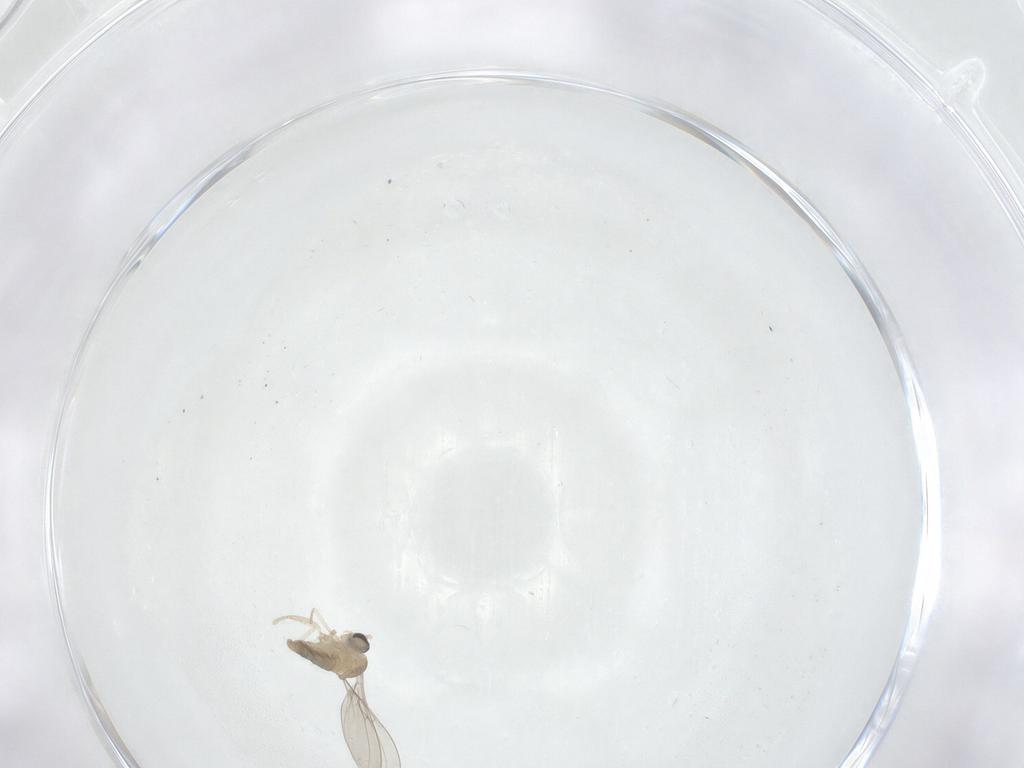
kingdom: Animalia
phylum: Arthropoda
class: Insecta
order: Diptera
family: Cecidomyiidae
